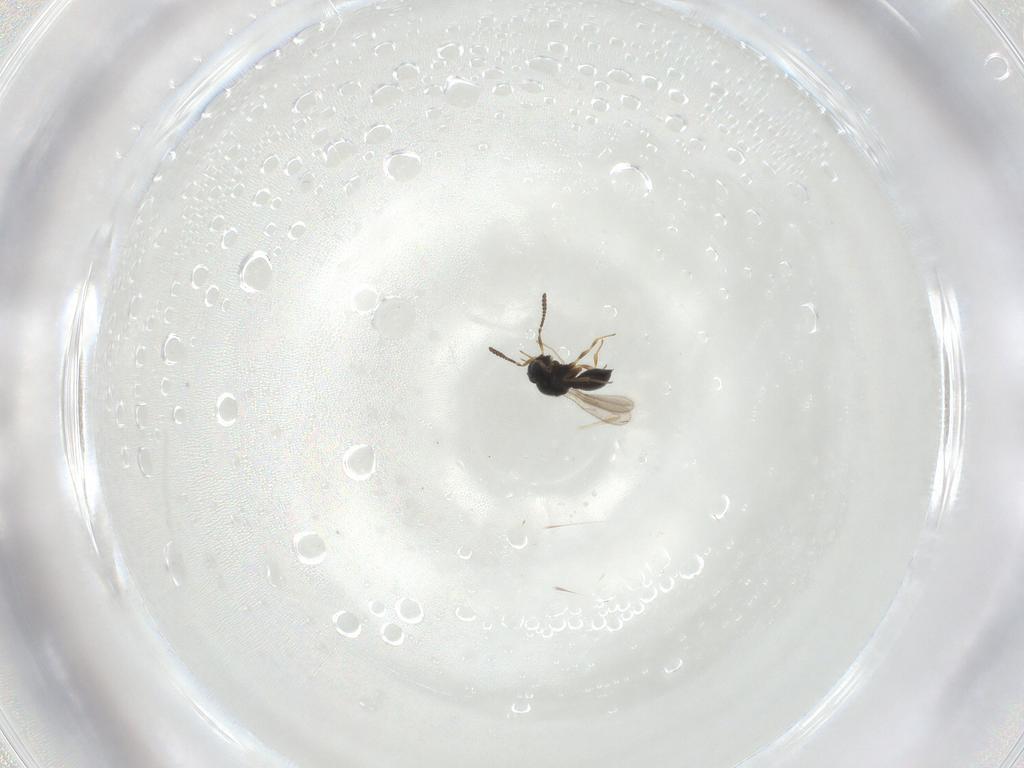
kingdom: Animalia
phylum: Arthropoda
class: Insecta
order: Hymenoptera
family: Scelionidae
